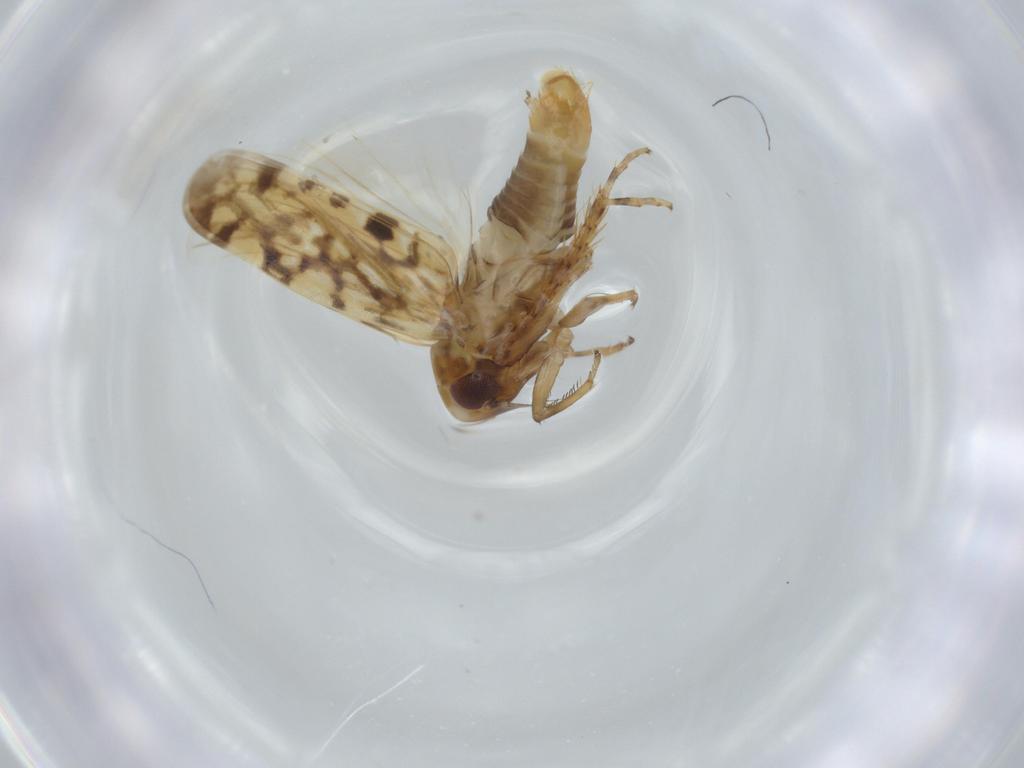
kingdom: Animalia
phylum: Arthropoda
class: Insecta
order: Hemiptera
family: Cicadellidae
